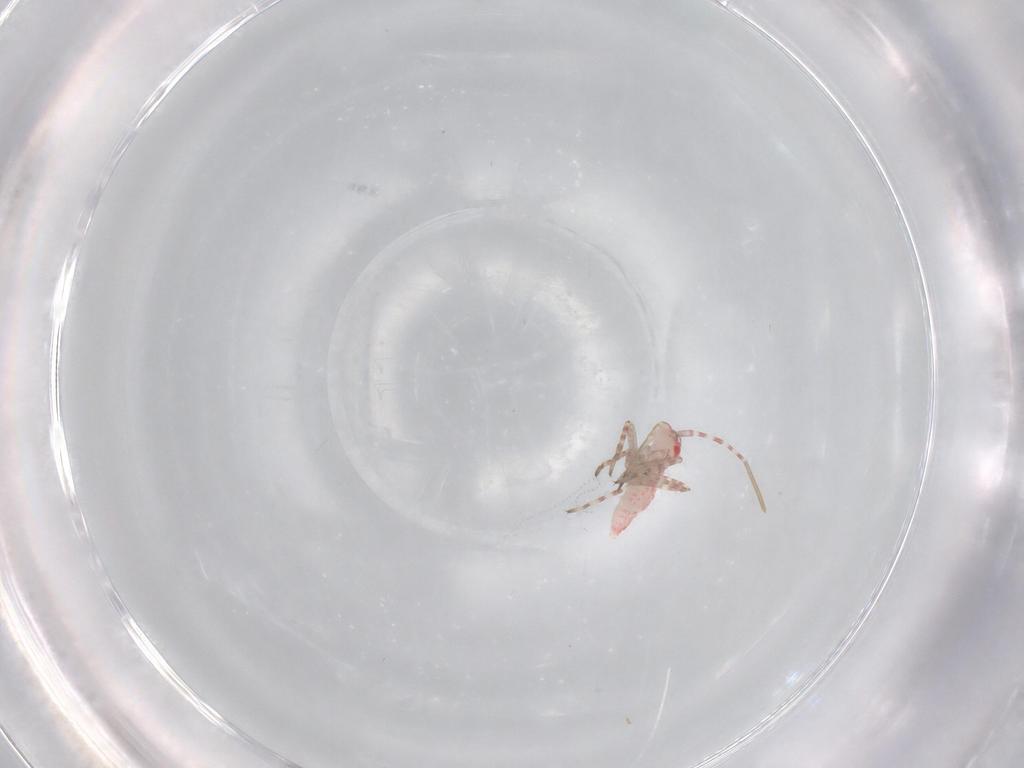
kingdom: Animalia
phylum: Arthropoda
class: Insecta
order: Hemiptera
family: Miridae
